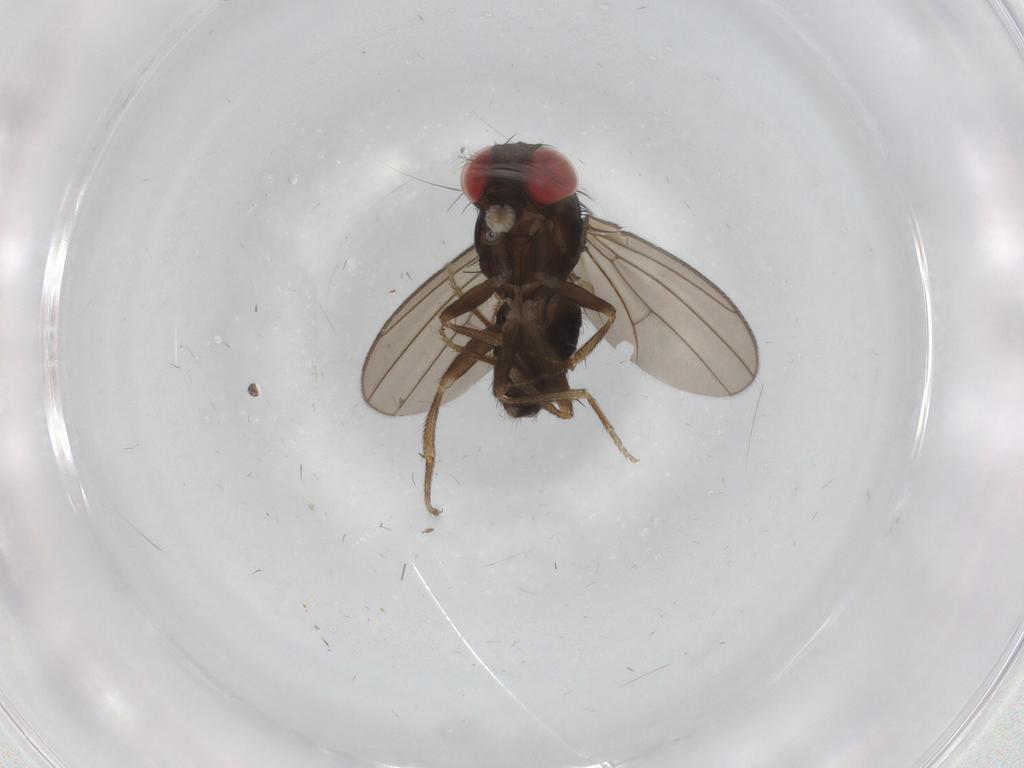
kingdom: Animalia
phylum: Arthropoda
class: Insecta
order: Diptera
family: Drosophilidae
